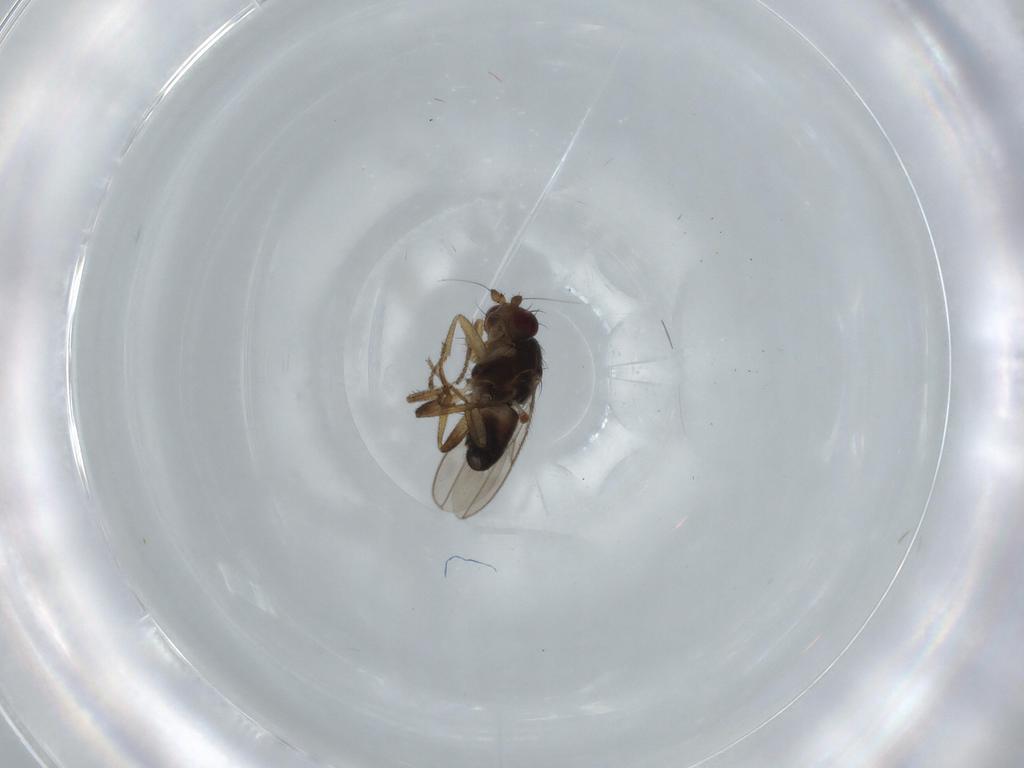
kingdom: Animalia
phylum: Arthropoda
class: Insecta
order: Diptera
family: Sphaeroceridae
